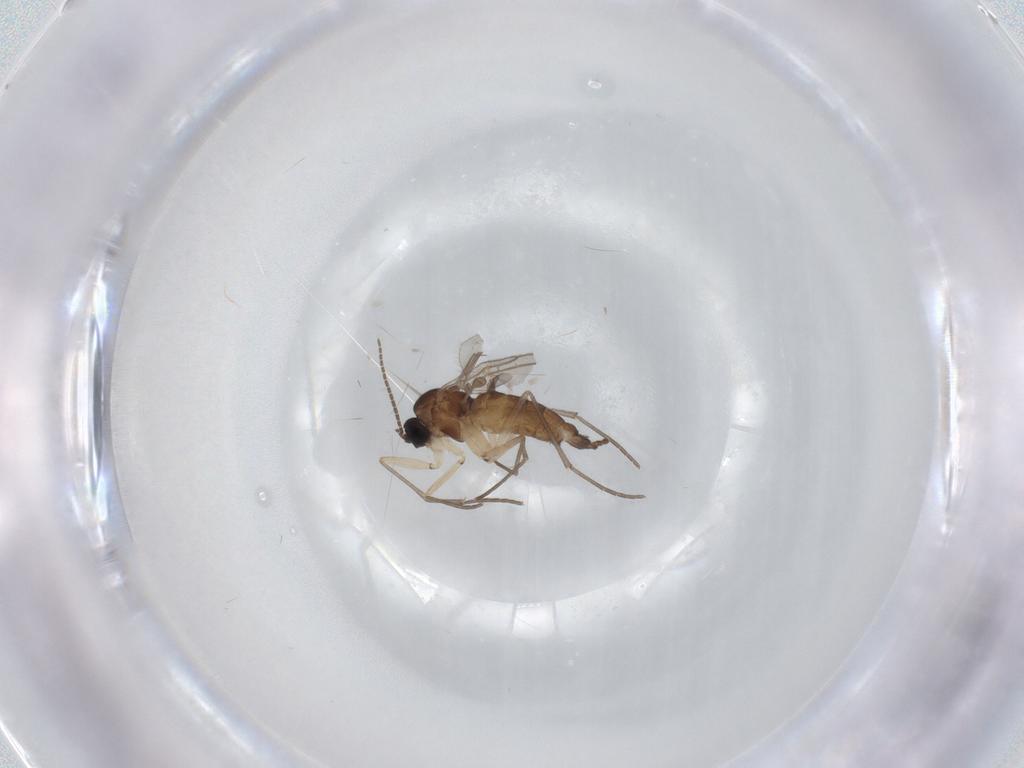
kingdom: Animalia
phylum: Arthropoda
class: Insecta
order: Diptera
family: Sciaridae
